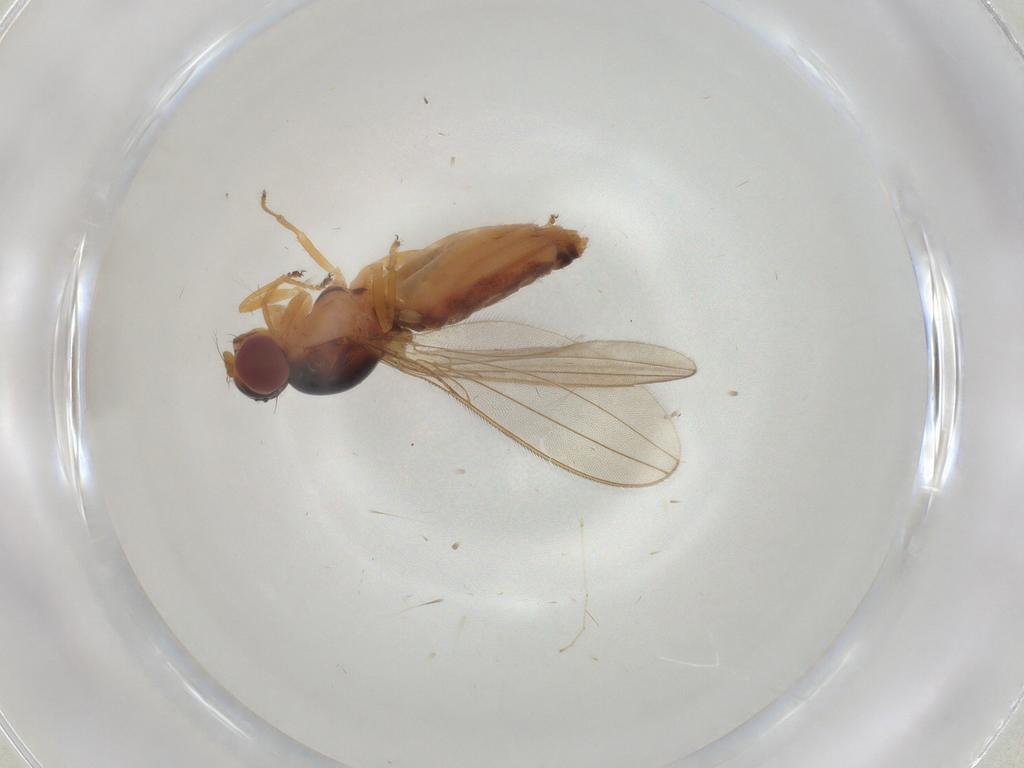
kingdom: Animalia
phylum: Arthropoda
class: Insecta
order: Diptera
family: Asteiidae
